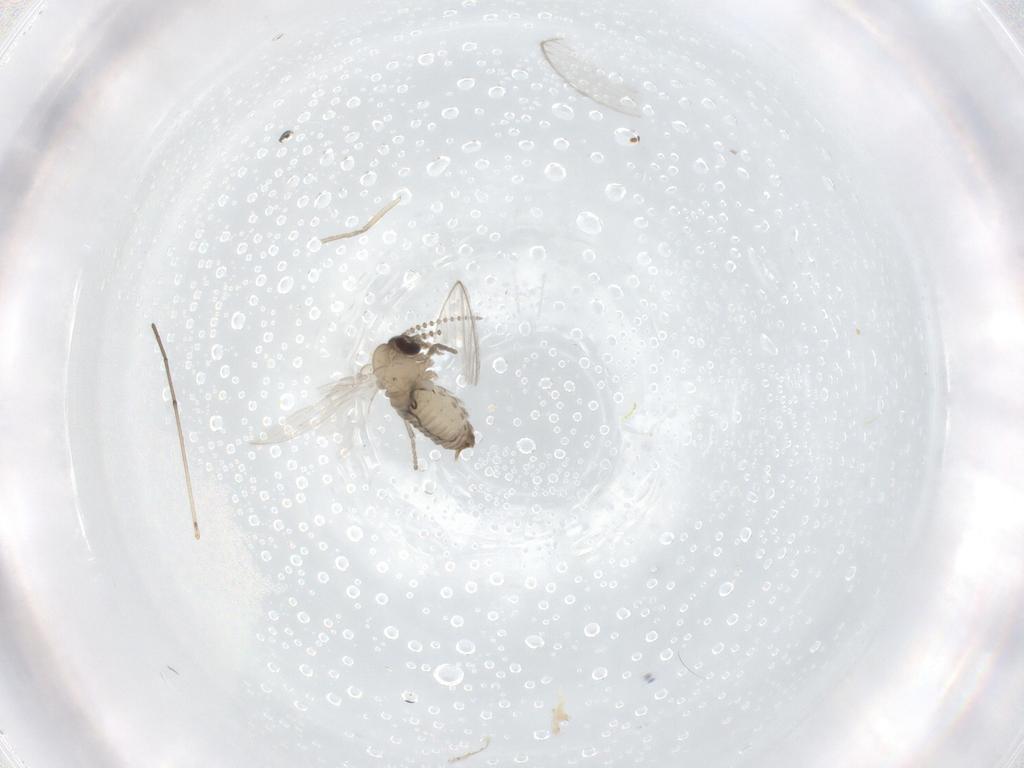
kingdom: Animalia
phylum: Arthropoda
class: Insecta
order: Diptera
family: Psychodidae
